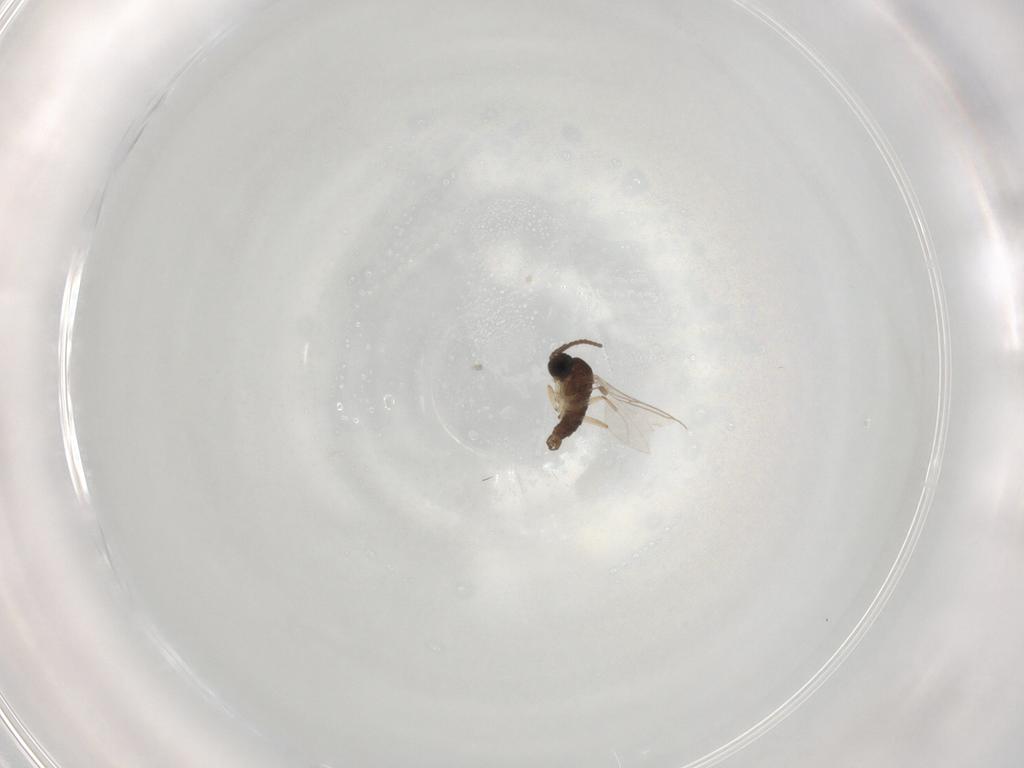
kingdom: Animalia
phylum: Arthropoda
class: Insecta
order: Diptera
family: Sciaridae
